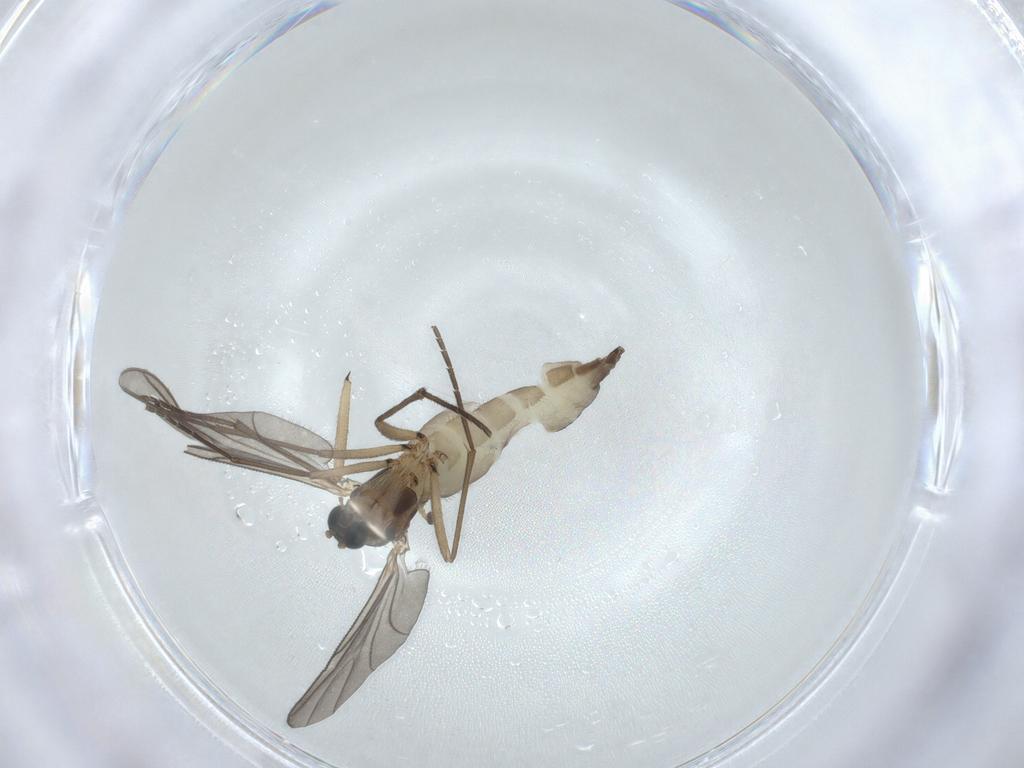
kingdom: Animalia
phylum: Arthropoda
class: Insecta
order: Diptera
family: Sciaridae
